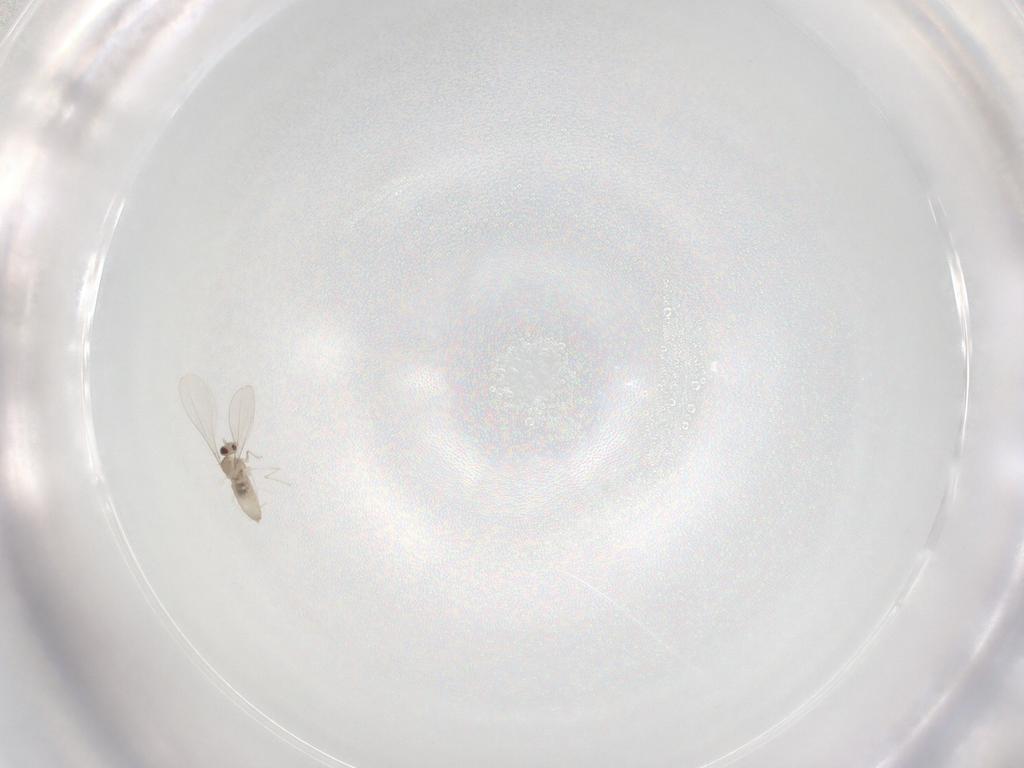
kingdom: Animalia
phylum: Arthropoda
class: Insecta
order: Diptera
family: Cecidomyiidae
